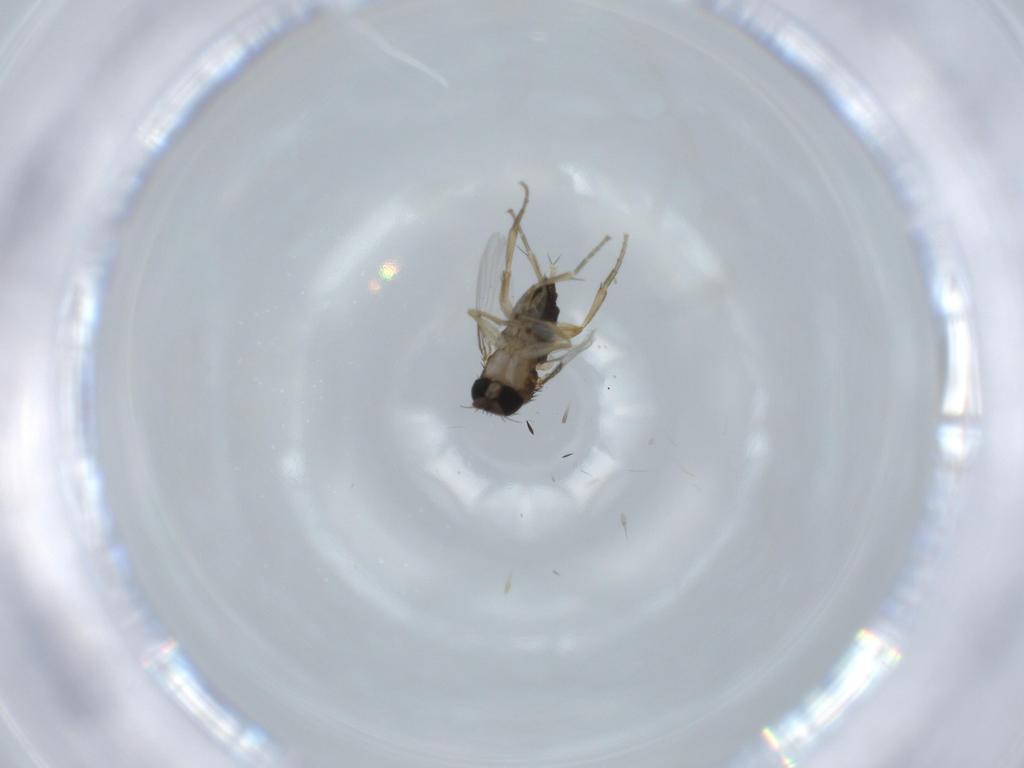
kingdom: Animalia
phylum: Arthropoda
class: Insecta
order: Diptera
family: Phoridae
